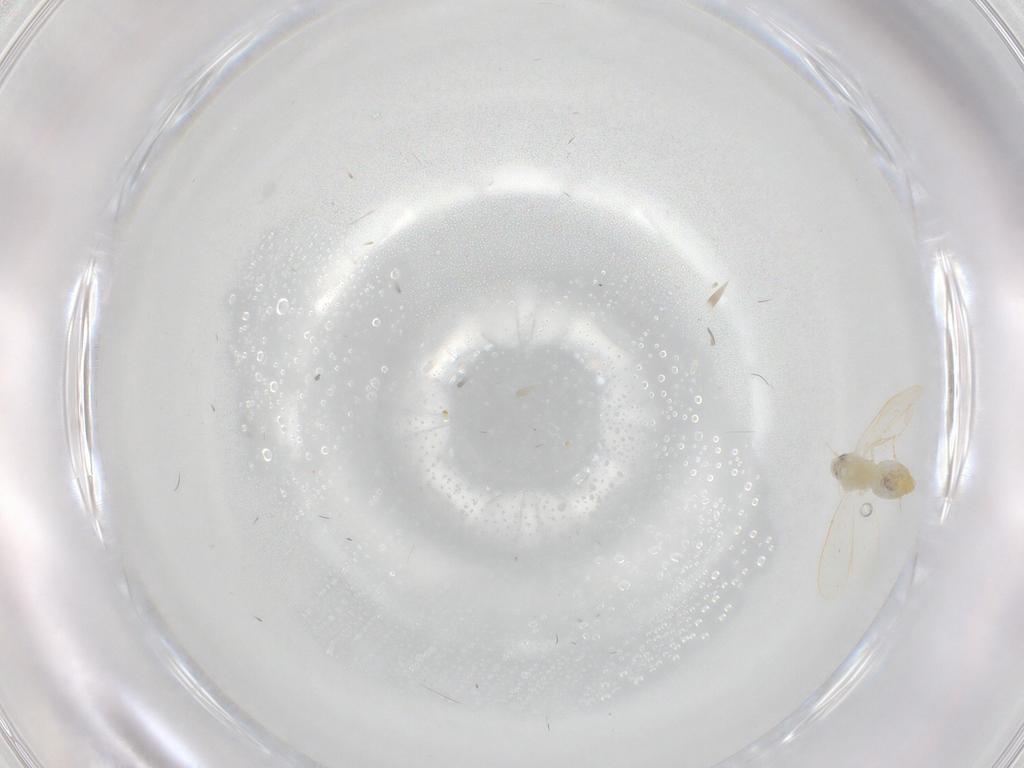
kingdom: Animalia
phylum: Arthropoda
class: Insecta
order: Hemiptera
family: Aleyrodidae
